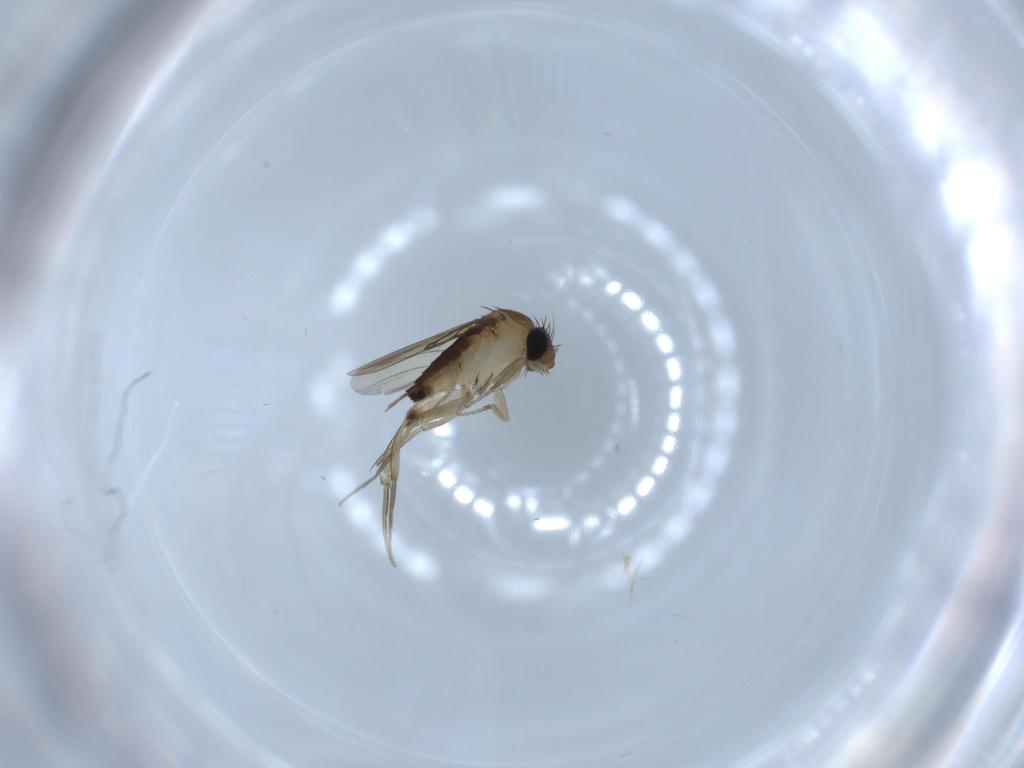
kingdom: Animalia
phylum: Arthropoda
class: Insecta
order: Diptera
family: Phoridae
